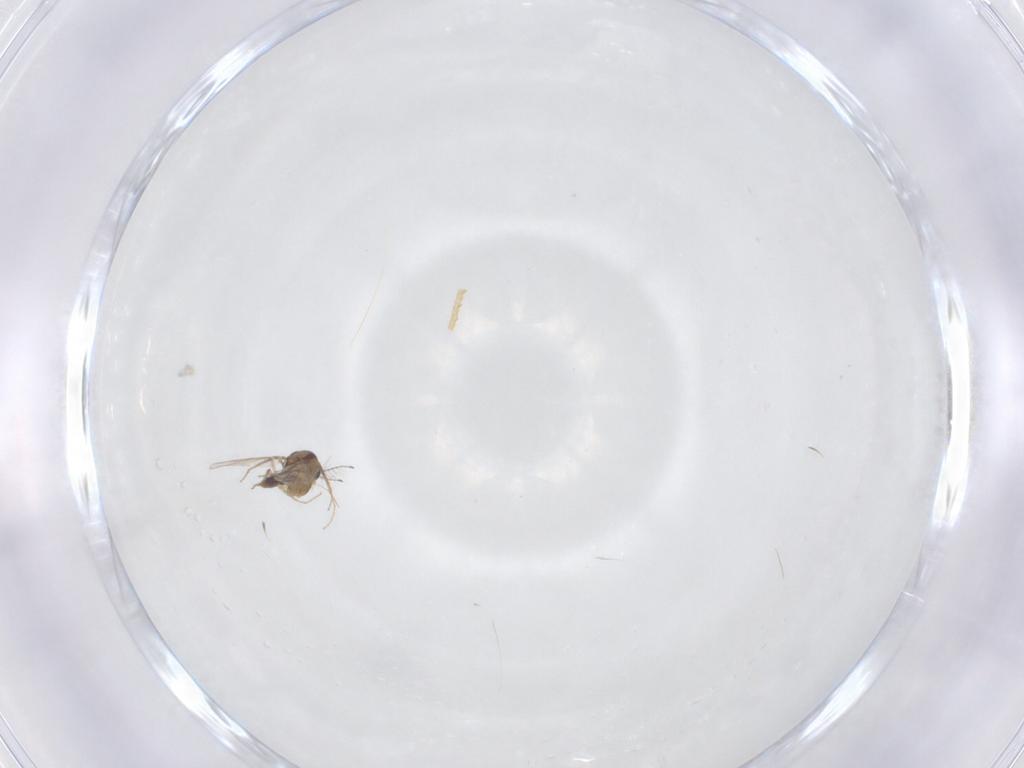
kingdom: Animalia
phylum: Arthropoda
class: Insecta
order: Diptera
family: Chironomidae
